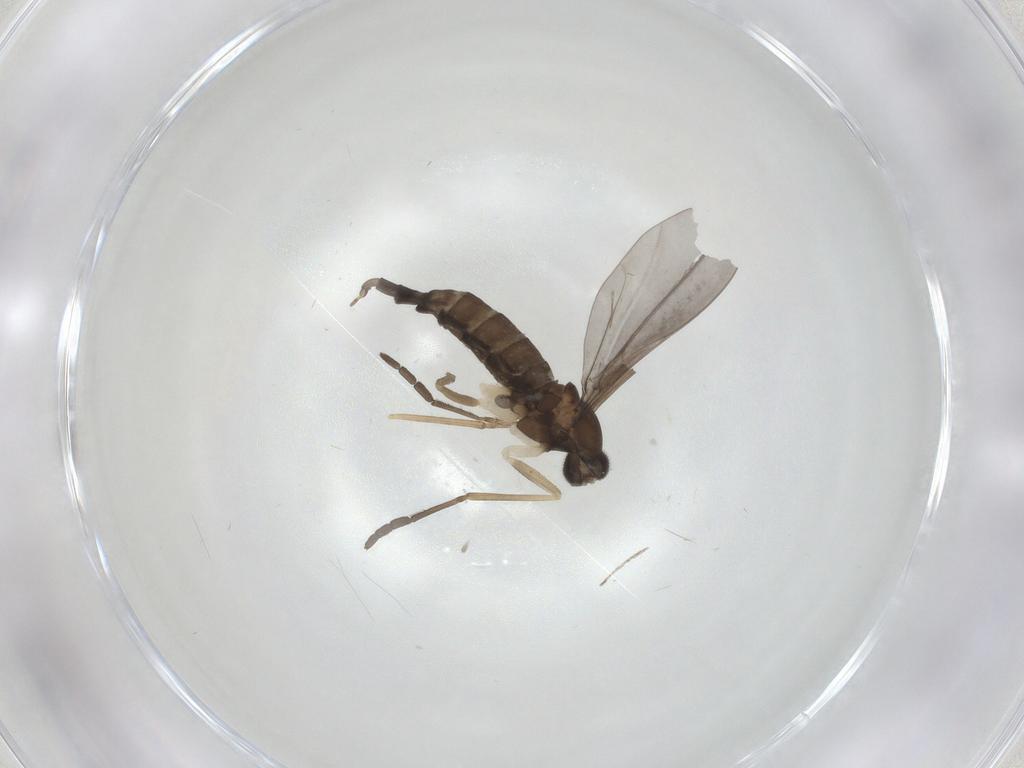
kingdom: Animalia
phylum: Arthropoda
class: Insecta
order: Diptera
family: Cecidomyiidae
